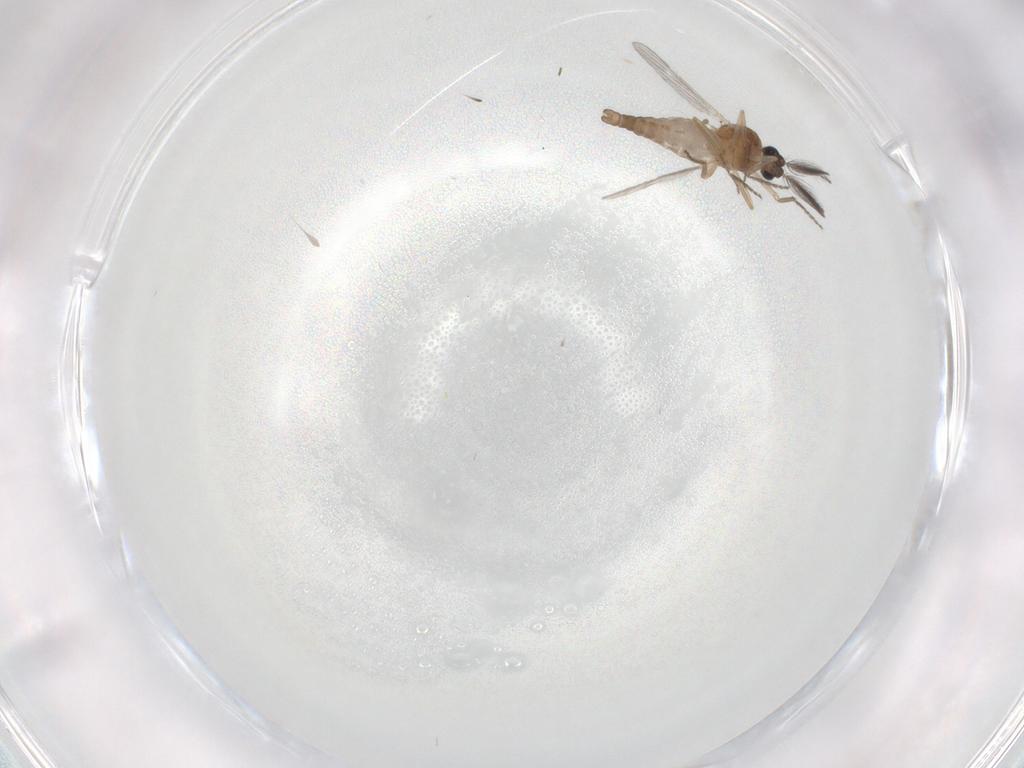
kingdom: Animalia
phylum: Arthropoda
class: Insecta
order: Diptera
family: Ceratopogonidae
